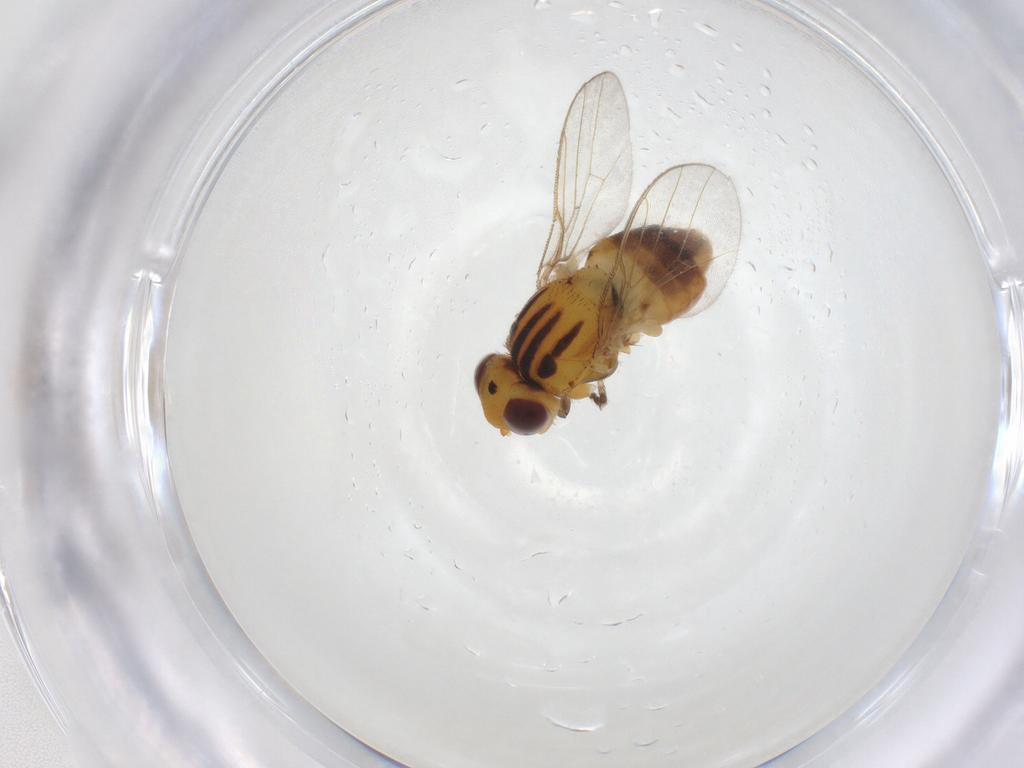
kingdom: Animalia
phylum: Arthropoda
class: Insecta
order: Diptera
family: Chloropidae
